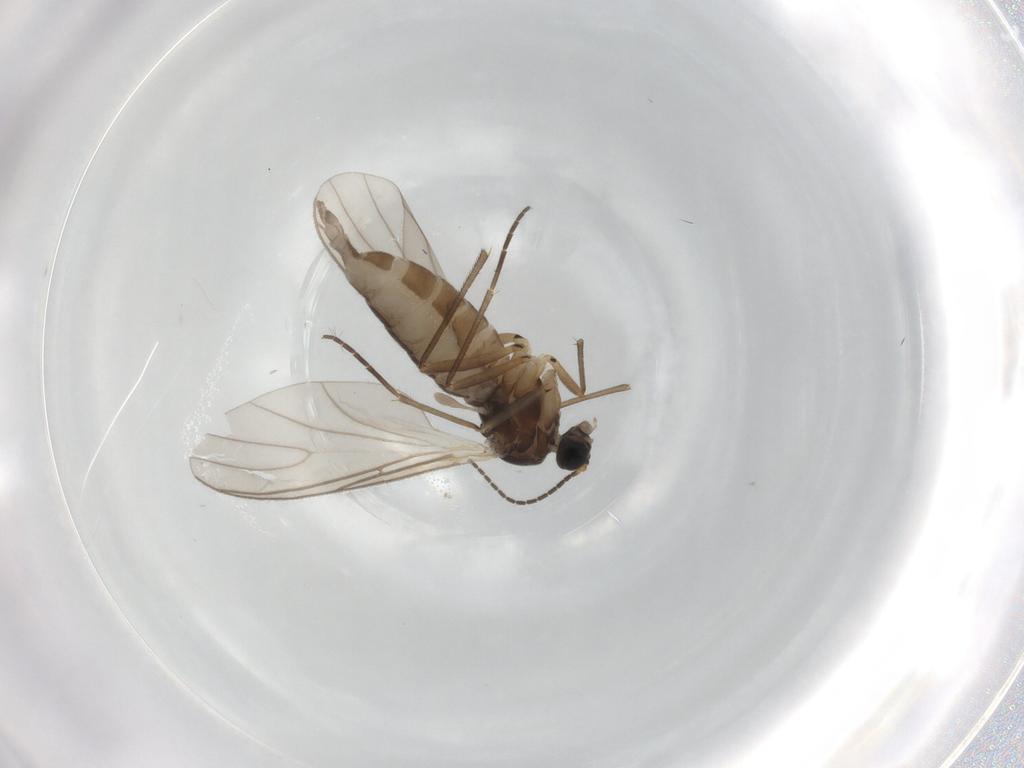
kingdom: Animalia
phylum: Arthropoda
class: Insecta
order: Diptera
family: Sciaridae
